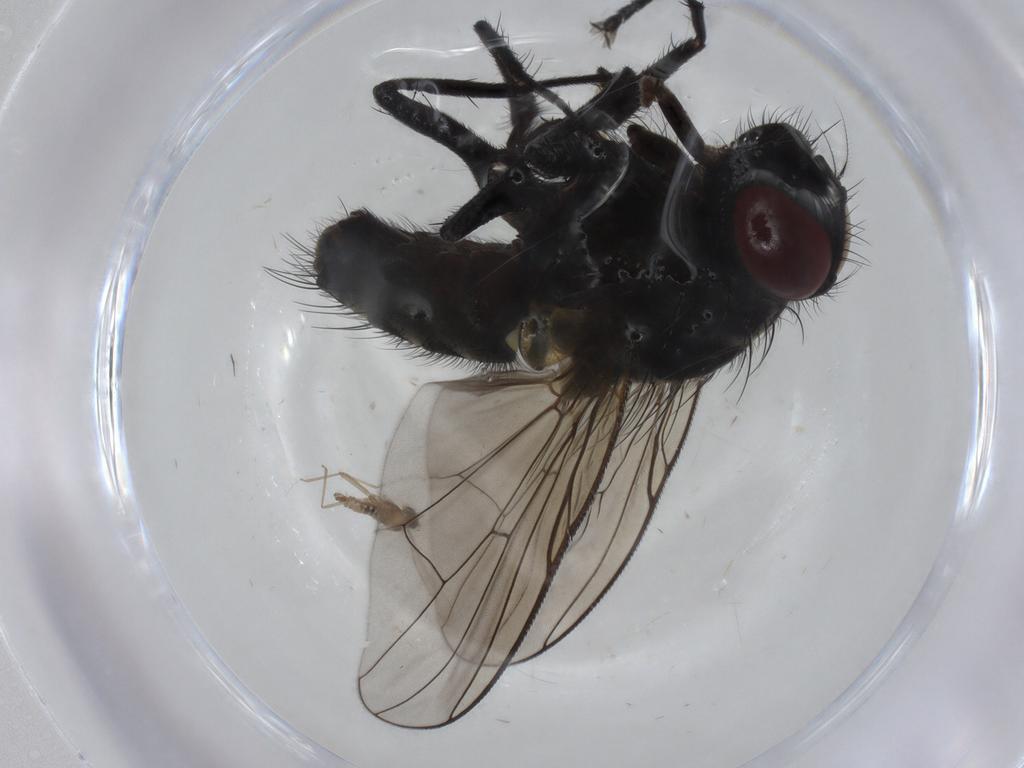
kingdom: Animalia
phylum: Arthropoda
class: Insecta
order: Diptera
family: Muscidae
